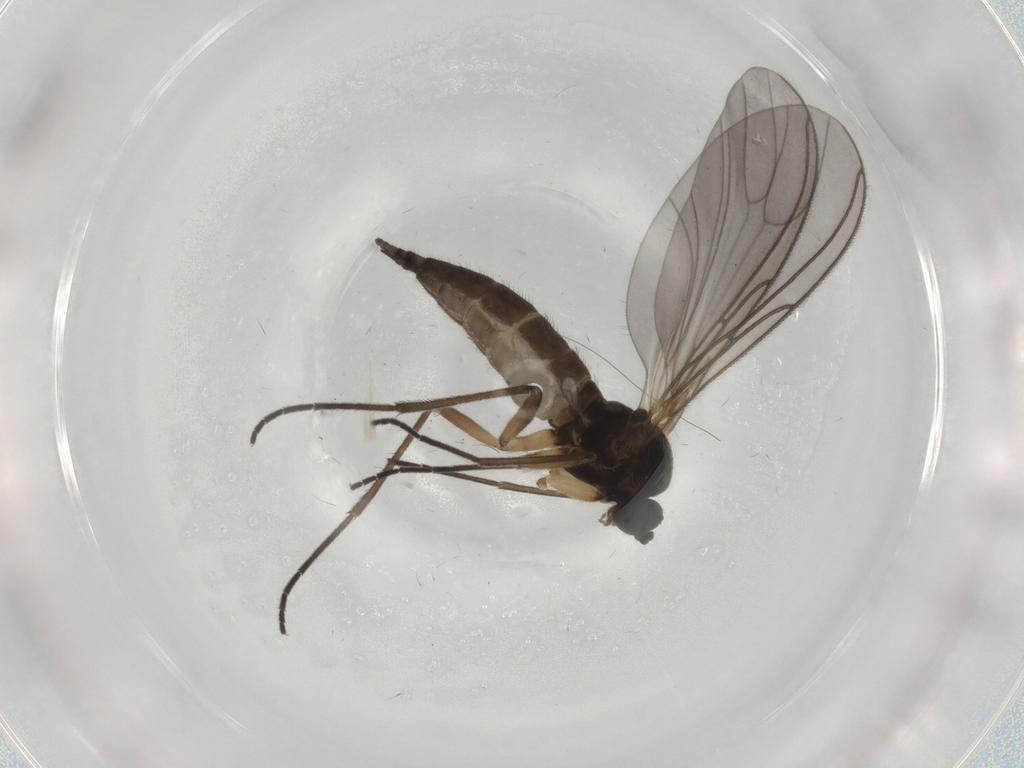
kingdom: Animalia
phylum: Arthropoda
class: Insecta
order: Diptera
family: Sciaridae
